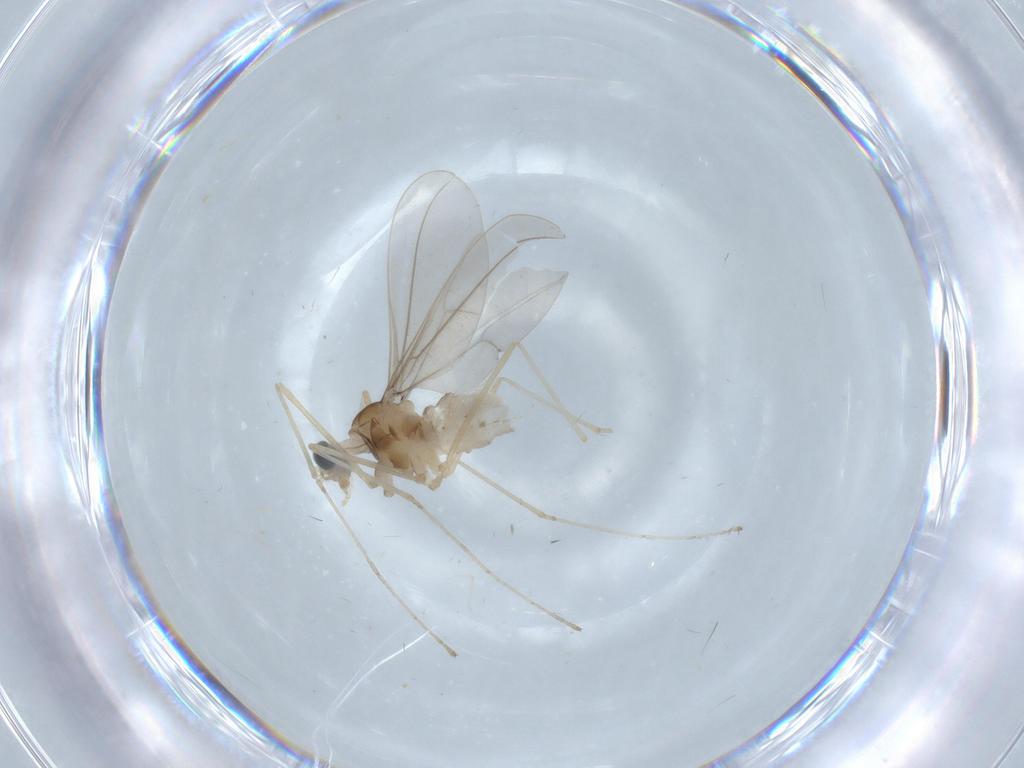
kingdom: Animalia
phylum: Arthropoda
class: Insecta
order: Diptera
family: Cecidomyiidae
